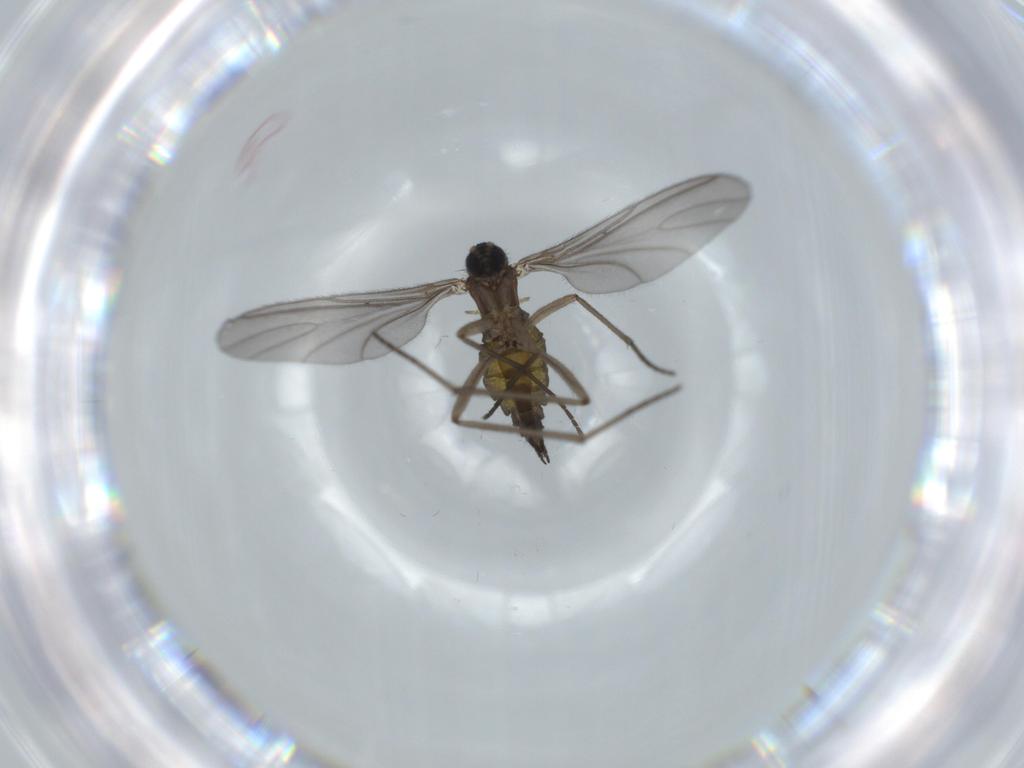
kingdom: Animalia
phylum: Arthropoda
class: Insecta
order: Diptera
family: Sciaridae
